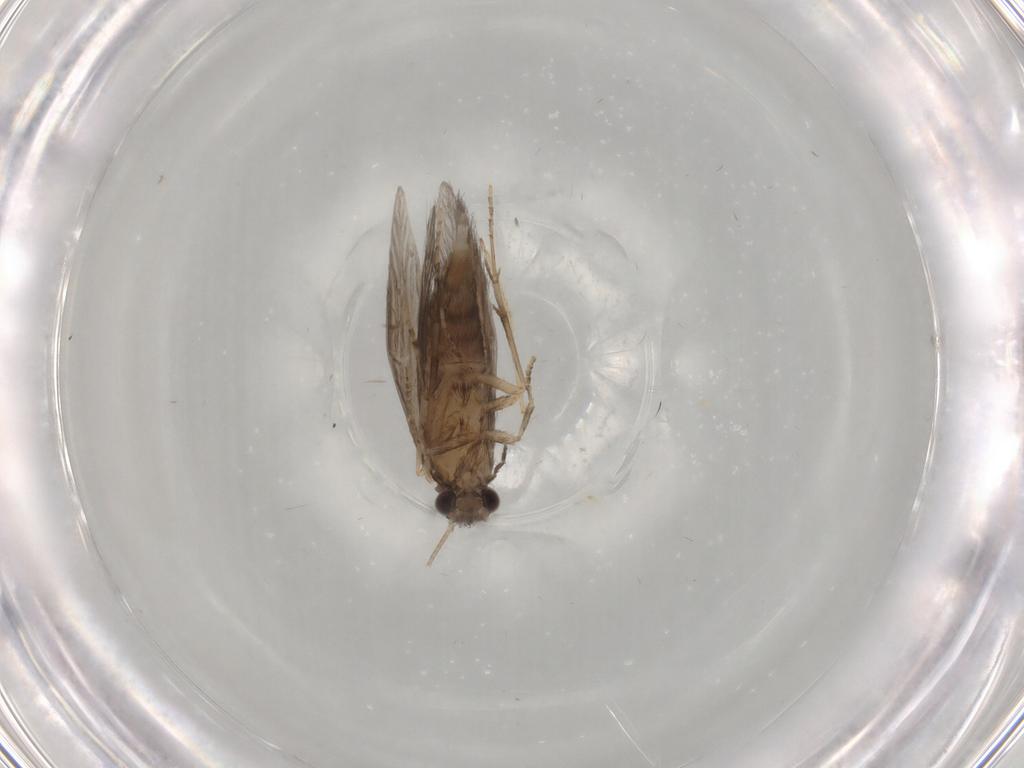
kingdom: Animalia
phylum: Arthropoda
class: Insecta
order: Trichoptera
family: Hydroptilidae
